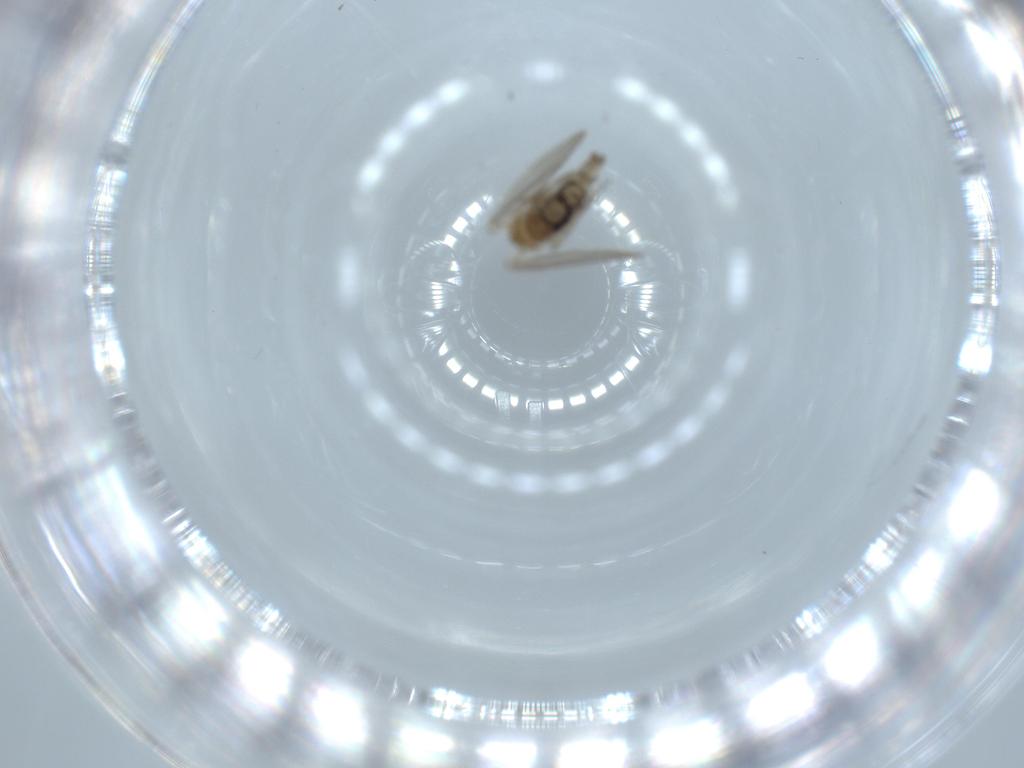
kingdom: Animalia
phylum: Arthropoda
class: Insecta
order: Diptera
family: Psychodidae
